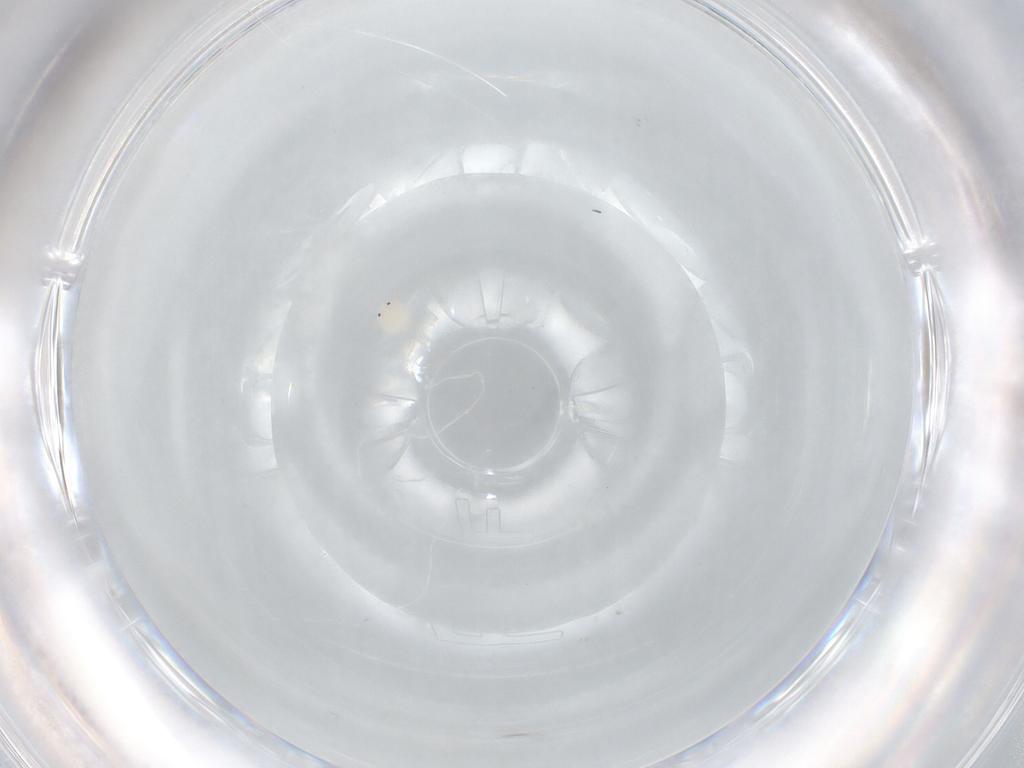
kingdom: Animalia
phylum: Arthropoda
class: Arachnida
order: Trombidiformes
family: Arrenuridae
